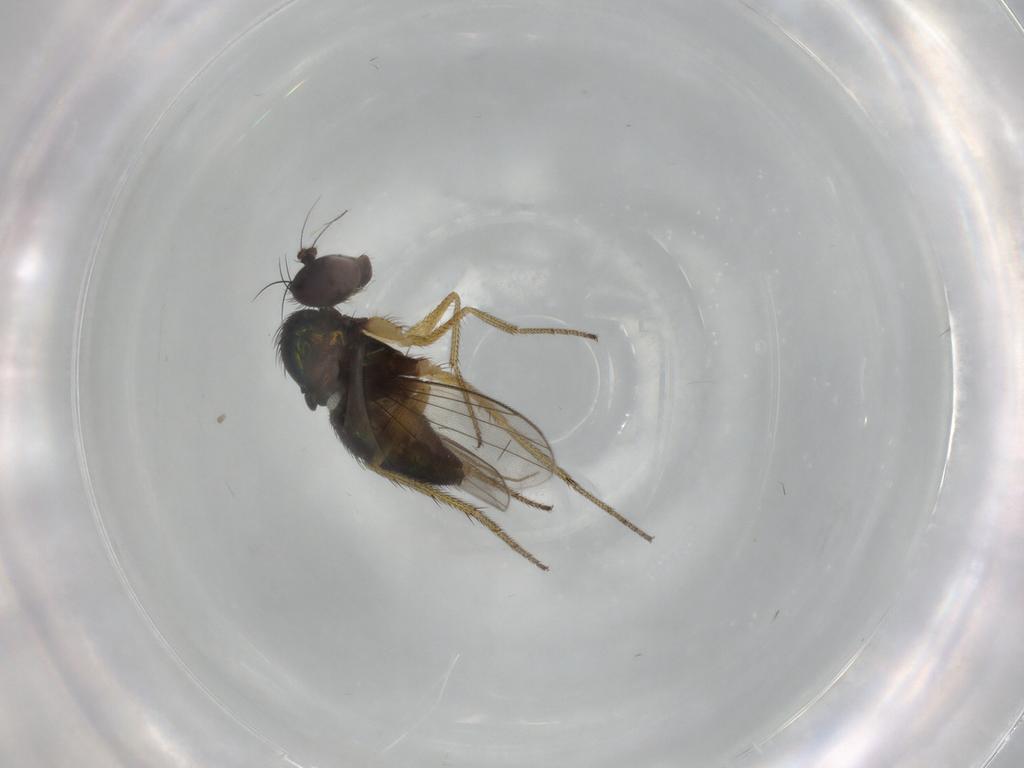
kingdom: Animalia
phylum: Arthropoda
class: Insecta
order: Diptera
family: Dolichopodidae
